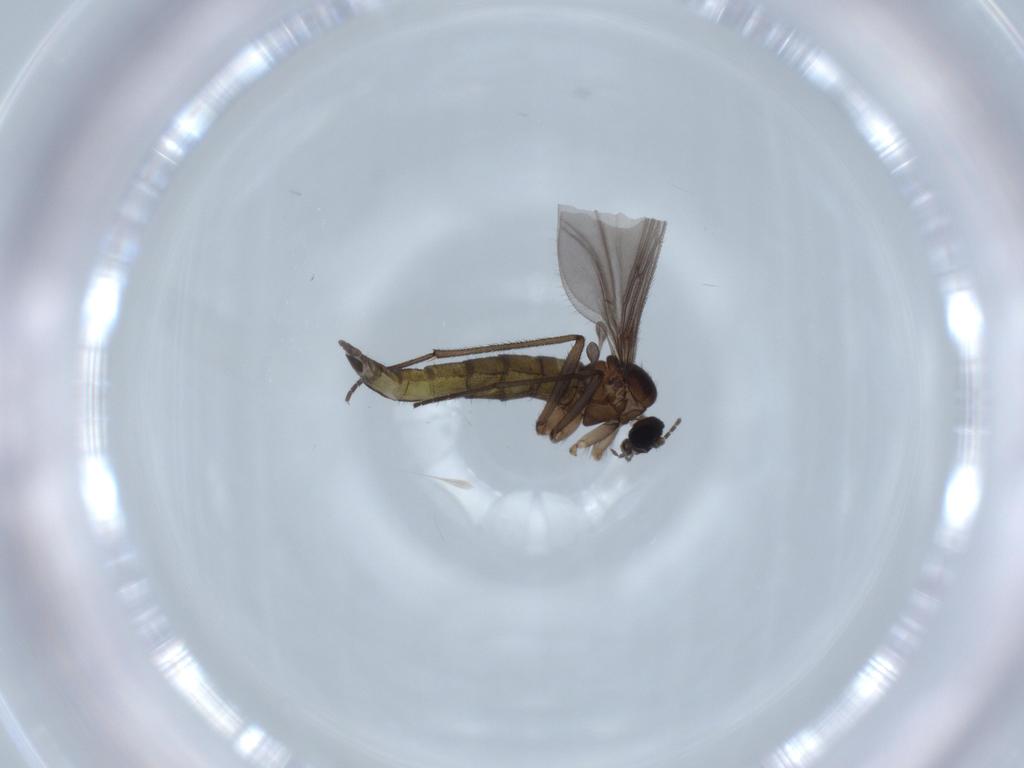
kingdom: Animalia
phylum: Arthropoda
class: Insecta
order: Diptera
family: Sciaridae
